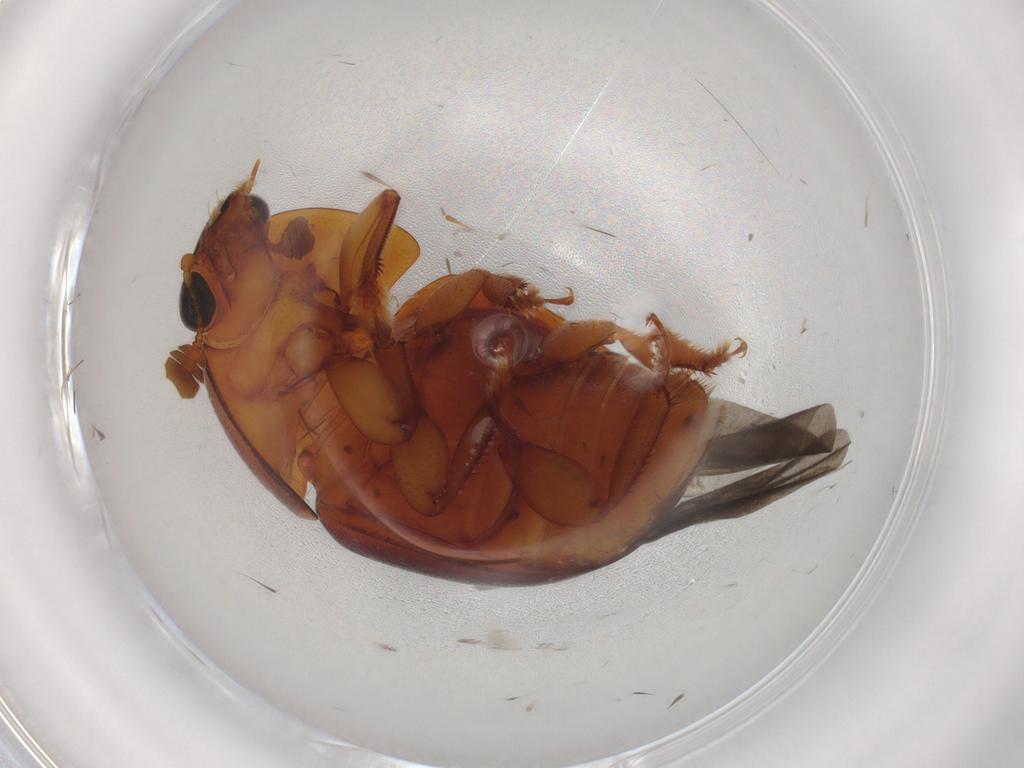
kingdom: Animalia
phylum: Arthropoda
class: Insecta
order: Coleoptera
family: Nitidulidae
